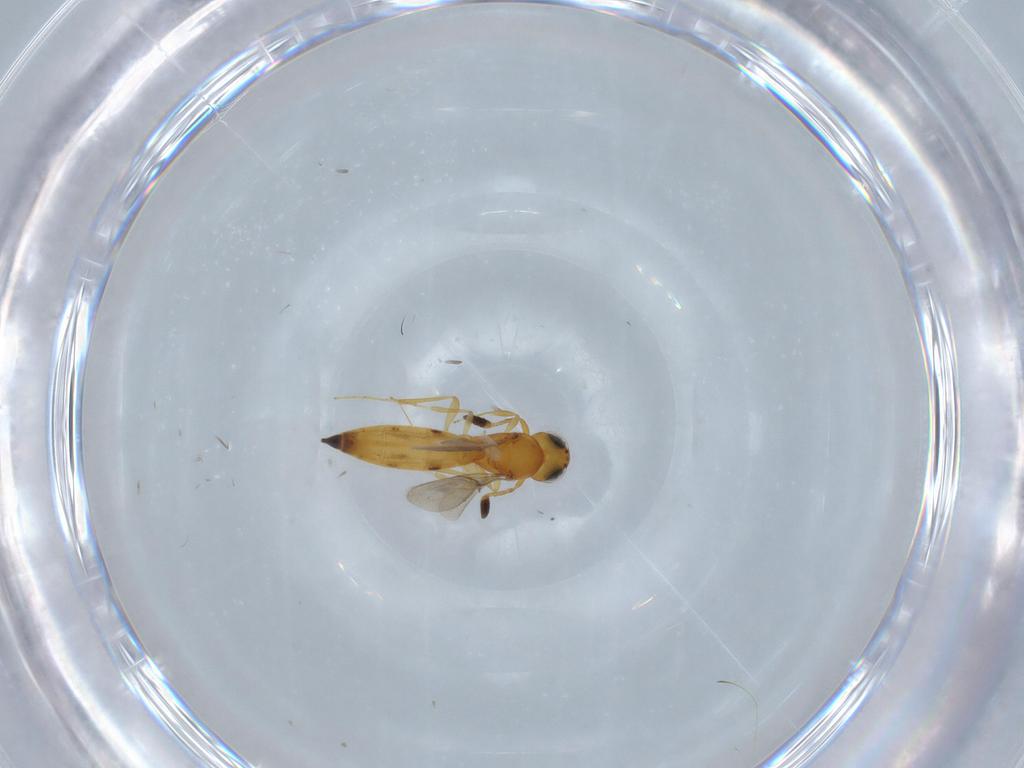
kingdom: Animalia
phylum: Arthropoda
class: Insecta
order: Hymenoptera
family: Scelionidae
